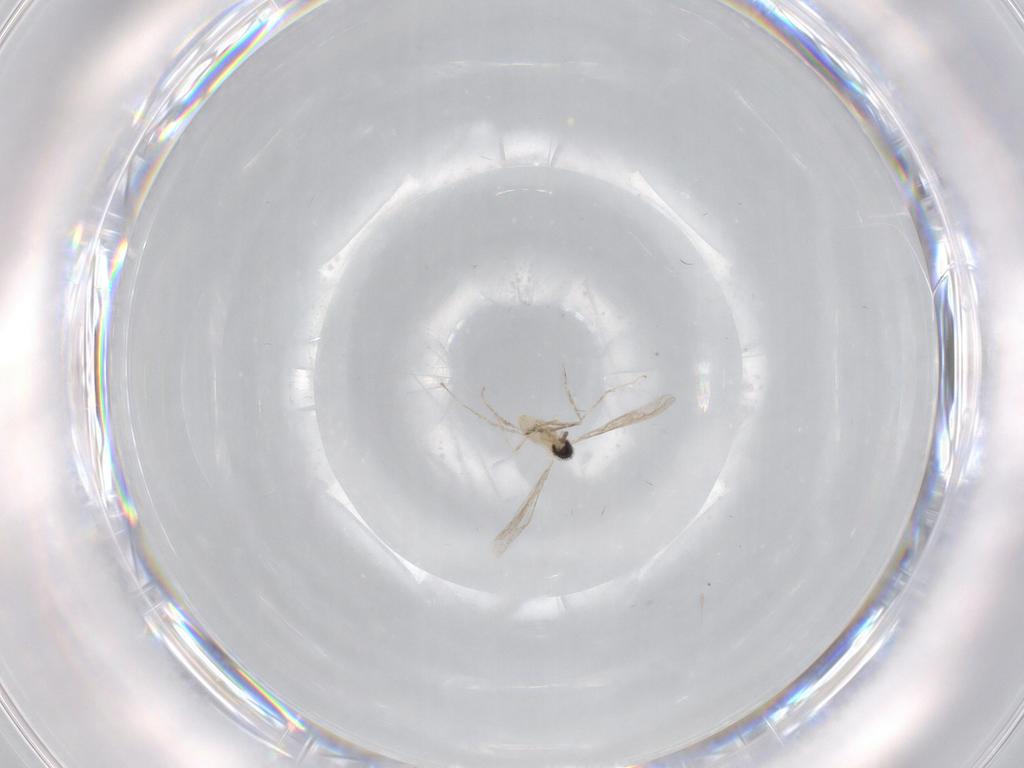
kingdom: Animalia
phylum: Arthropoda
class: Insecta
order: Diptera
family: Cecidomyiidae
